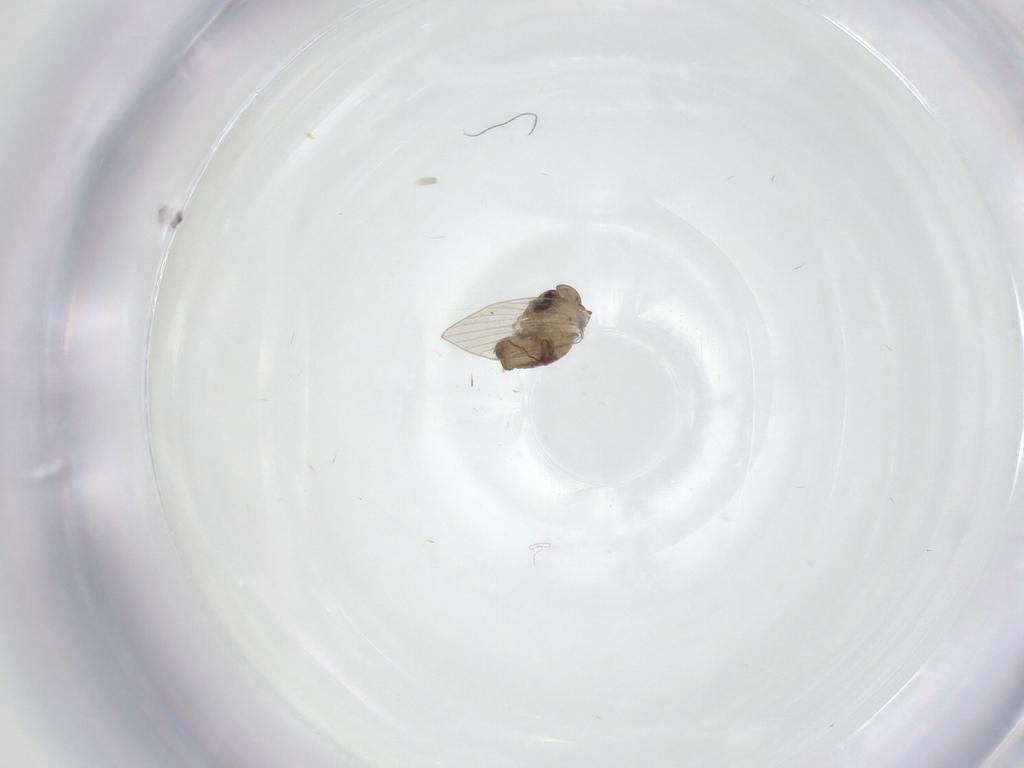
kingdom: Animalia
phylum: Arthropoda
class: Insecta
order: Diptera
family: Psychodidae
